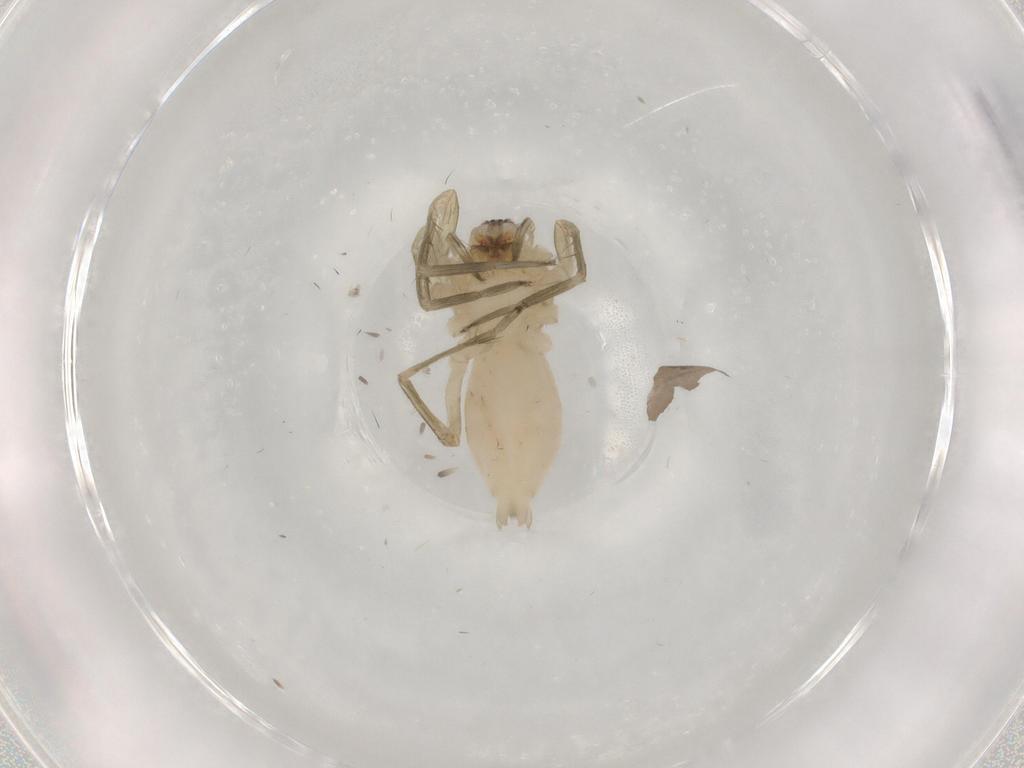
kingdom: Animalia
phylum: Arthropoda
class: Arachnida
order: Araneae
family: Anyphaenidae
